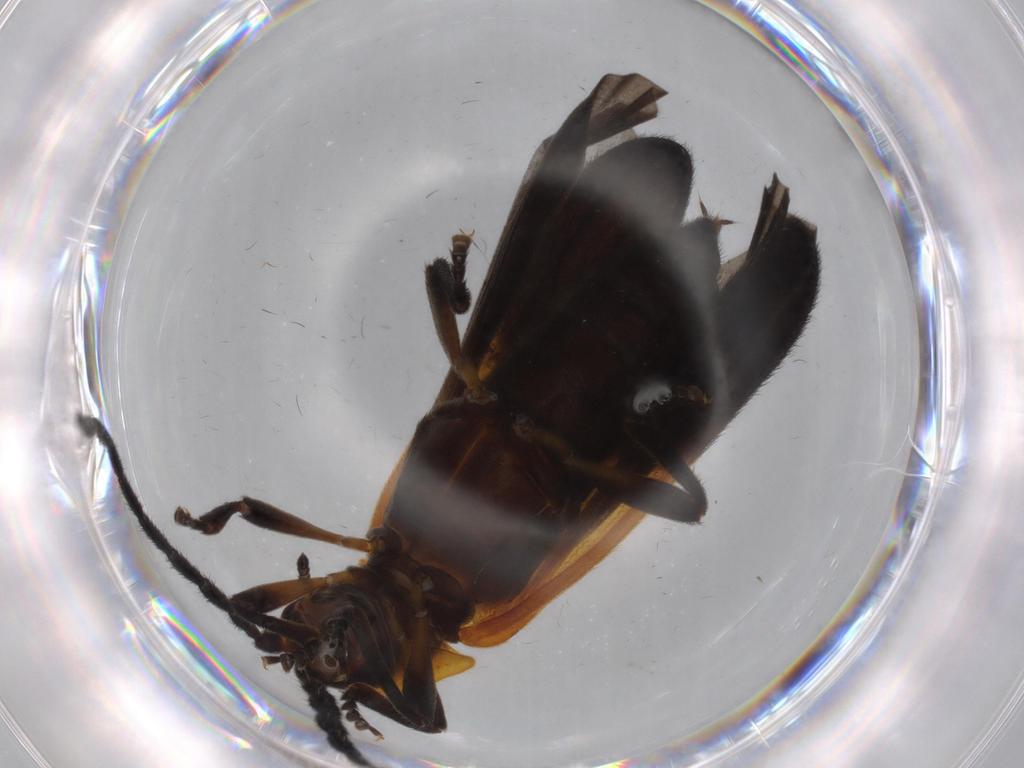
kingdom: Animalia
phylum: Arthropoda
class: Insecta
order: Coleoptera
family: Lycidae
